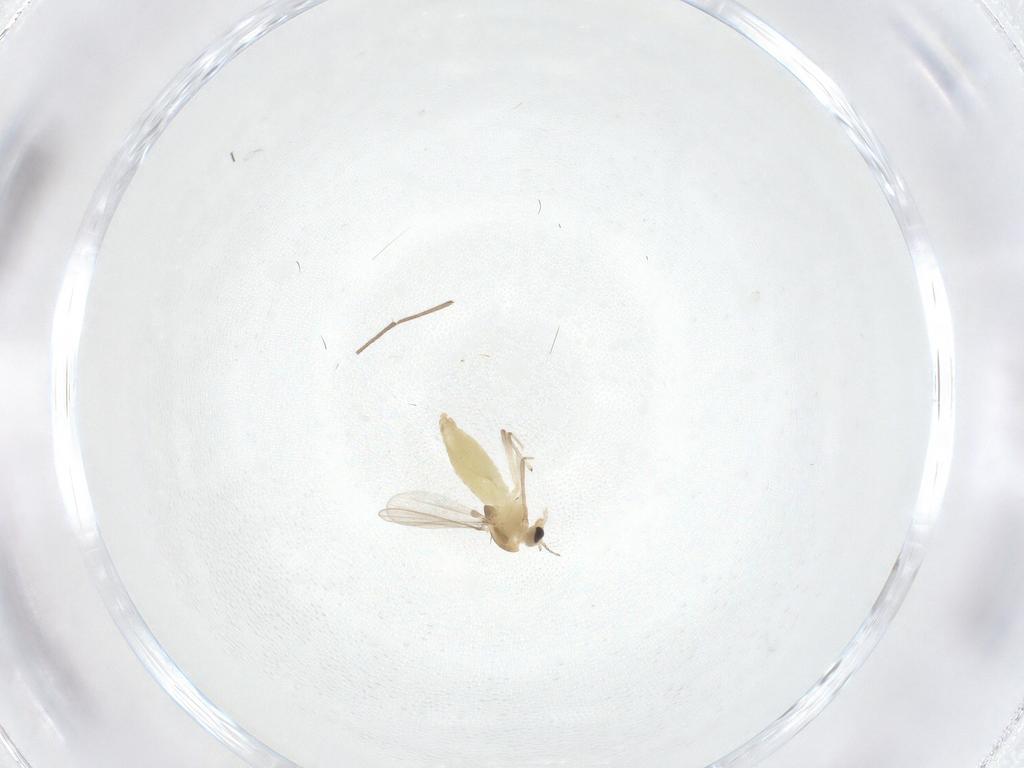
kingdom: Animalia
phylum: Arthropoda
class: Insecta
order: Diptera
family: Chironomidae
